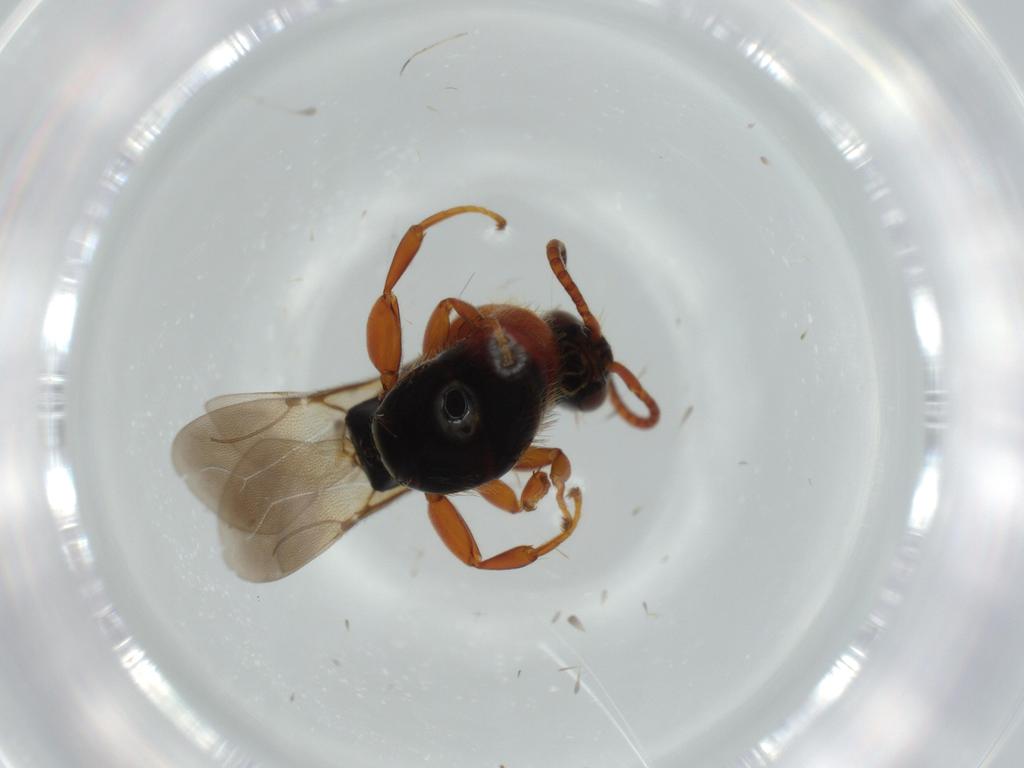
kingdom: Animalia
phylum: Arthropoda
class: Insecta
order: Hymenoptera
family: Bethylidae
